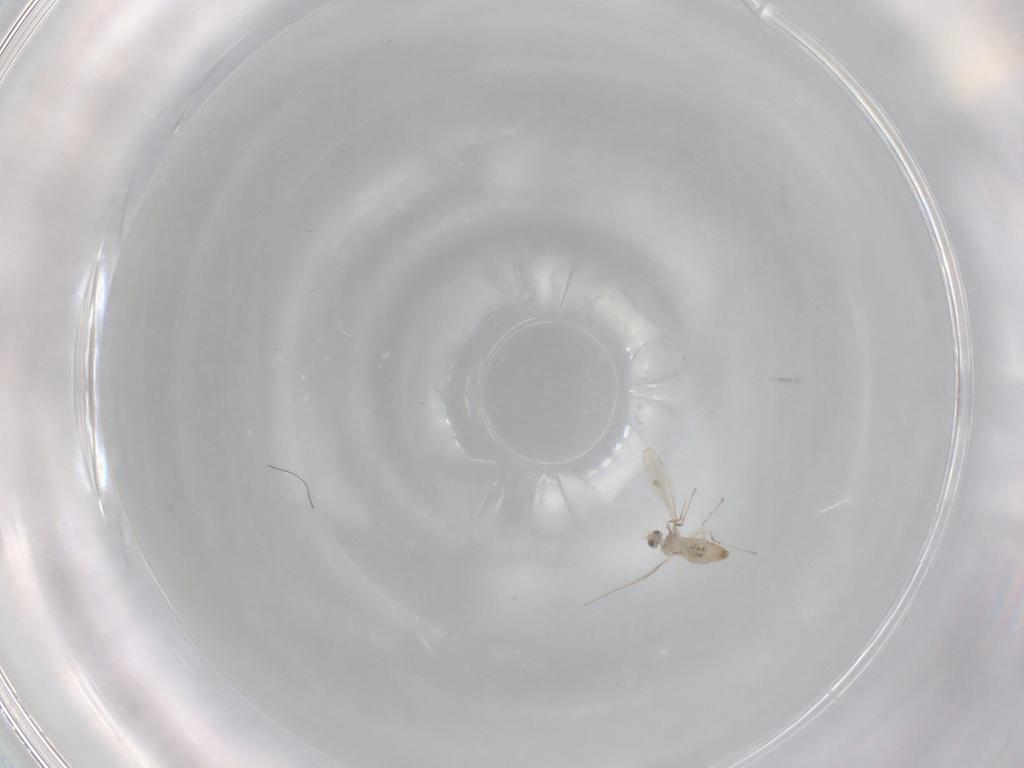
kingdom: Animalia
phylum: Arthropoda
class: Insecta
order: Diptera
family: Cecidomyiidae
